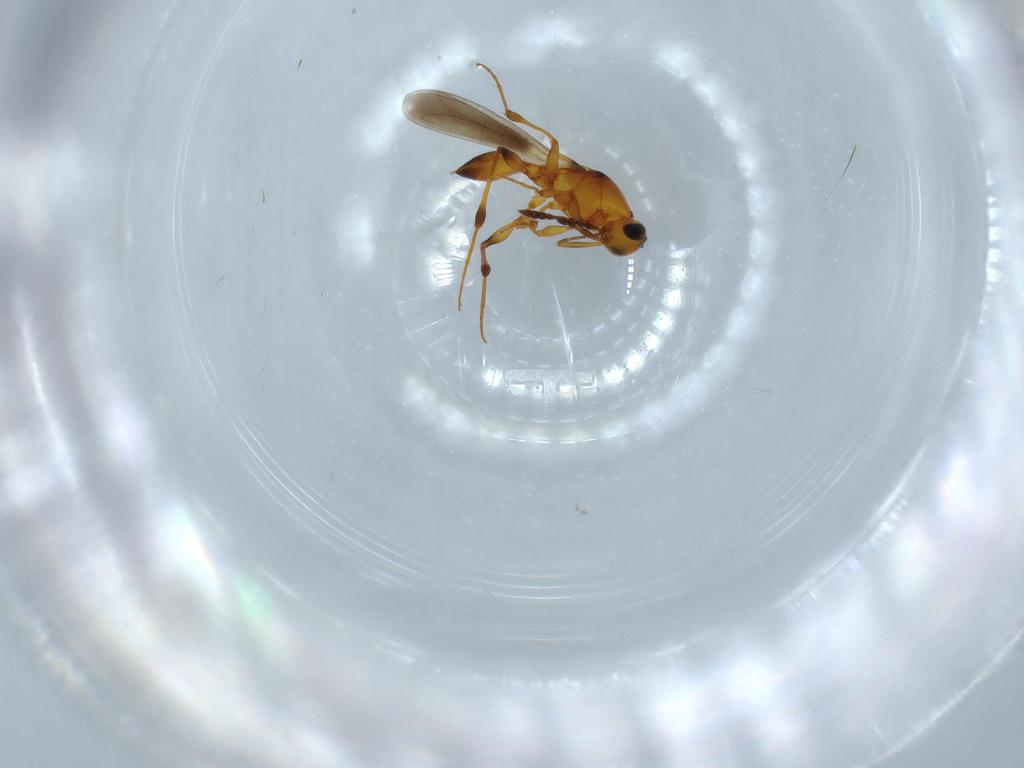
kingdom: Animalia
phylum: Arthropoda
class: Insecta
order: Hymenoptera
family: Platygastridae
